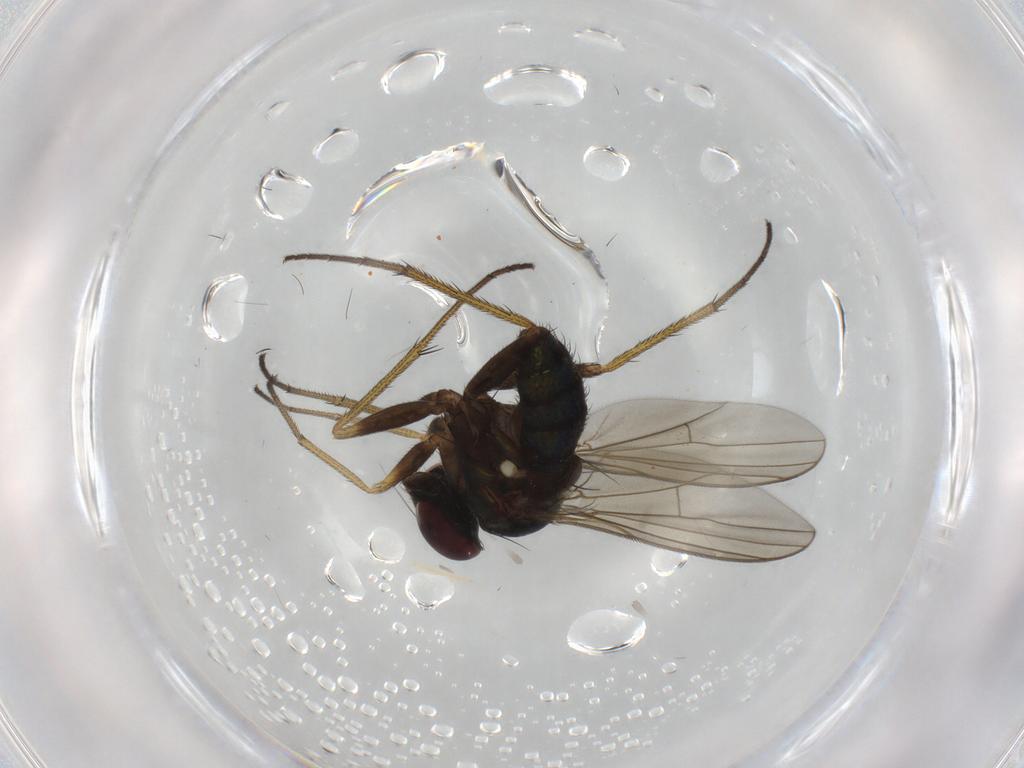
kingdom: Animalia
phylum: Arthropoda
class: Insecta
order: Diptera
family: Dolichopodidae
